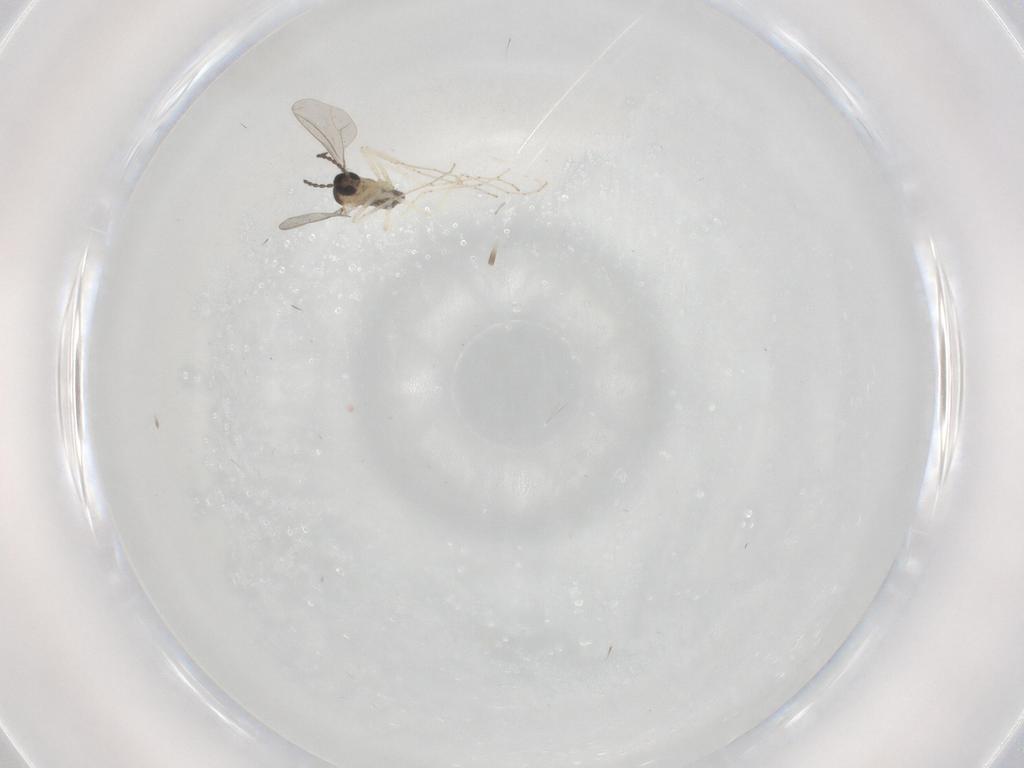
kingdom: Animalia
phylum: Arthropoda
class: Insecta
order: Diptera
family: Cecidomyiidae
